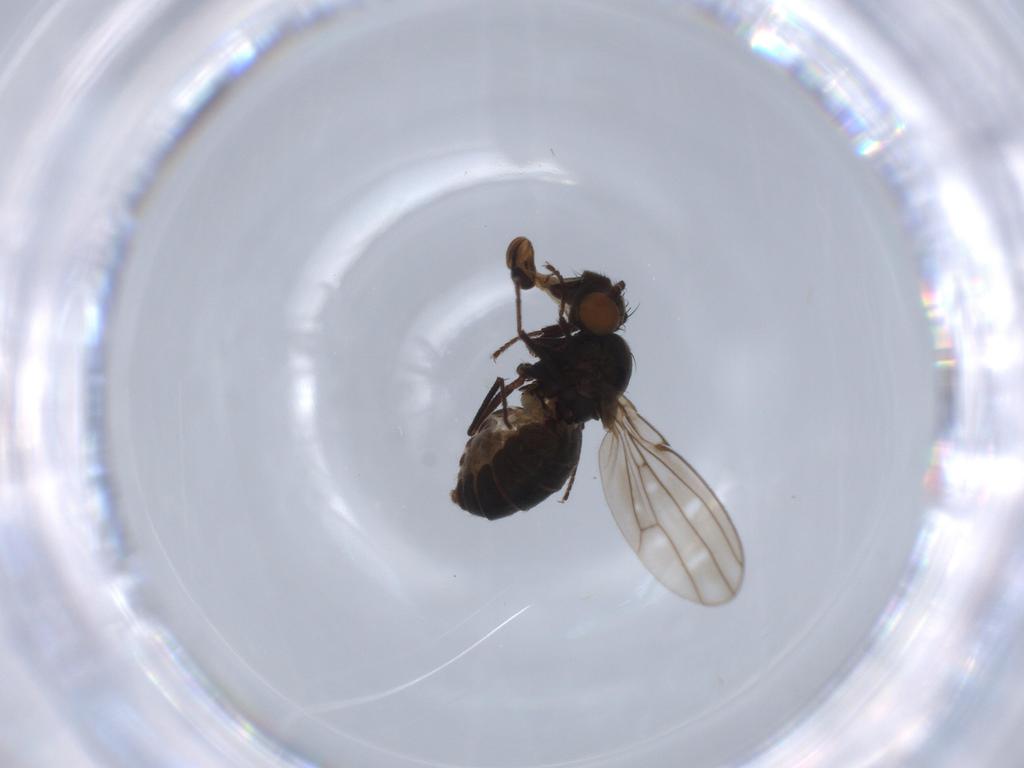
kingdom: Animalia
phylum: Arthropoda
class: Insecta
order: Diptera
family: Ephydridae
